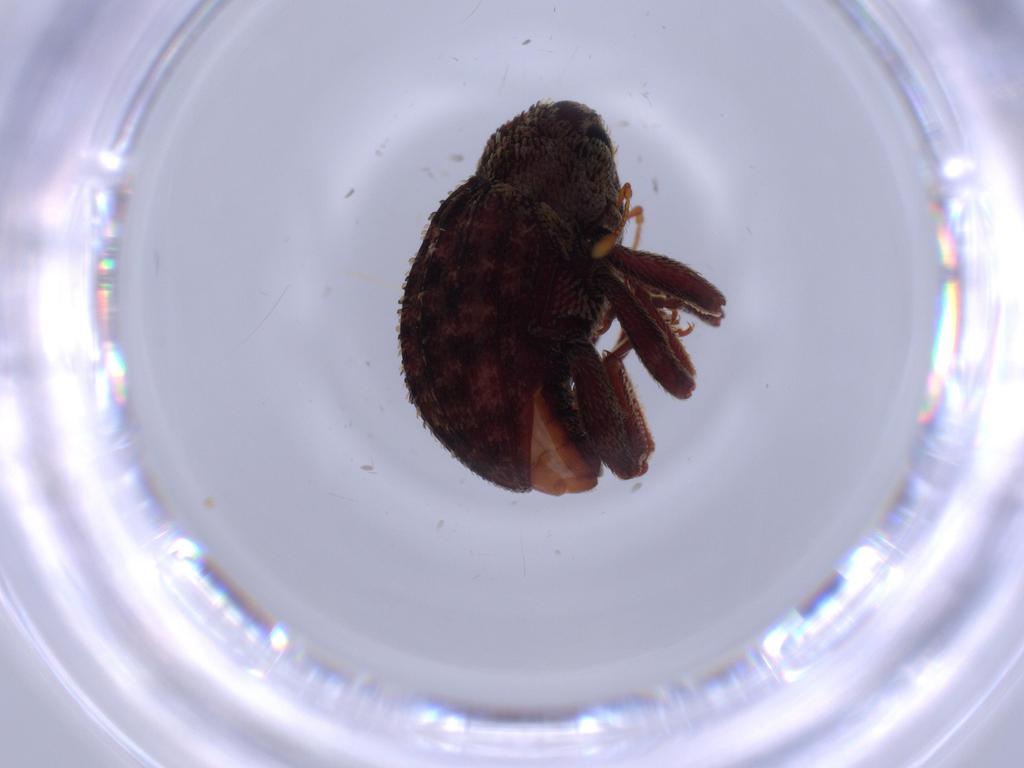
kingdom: Animalia
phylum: Arthropoda
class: Insecta
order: Coleoptera
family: Curculionidae
